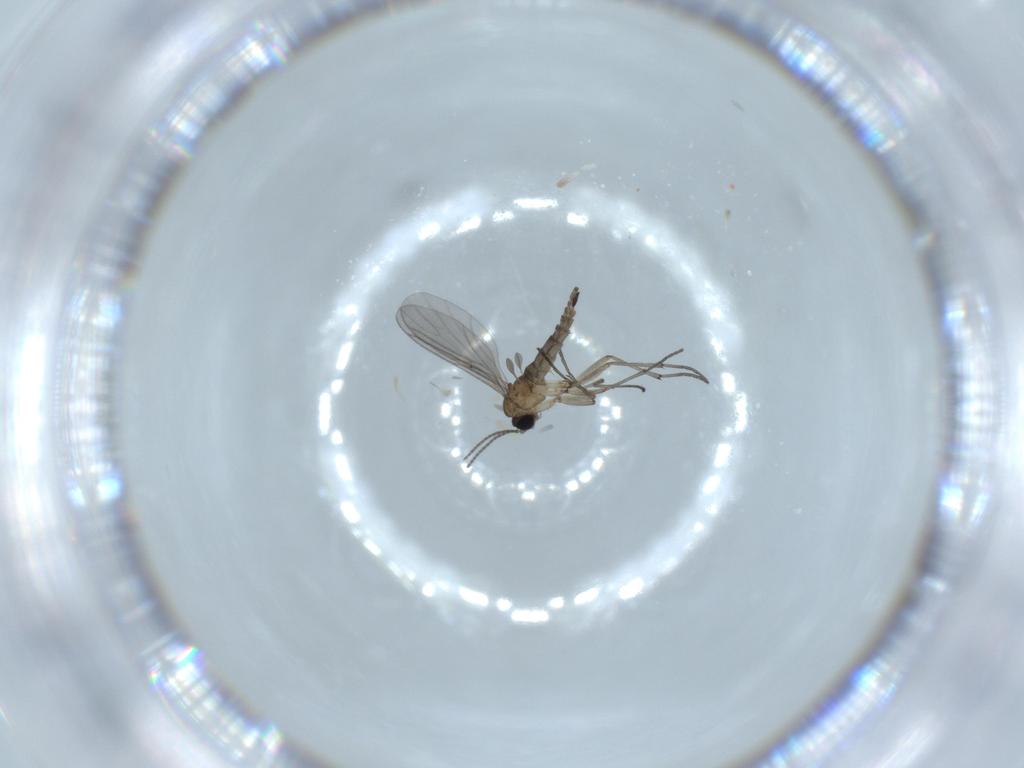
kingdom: Animalia
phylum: Arthropoda
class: Insecta
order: Diptera
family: Sciaridae
